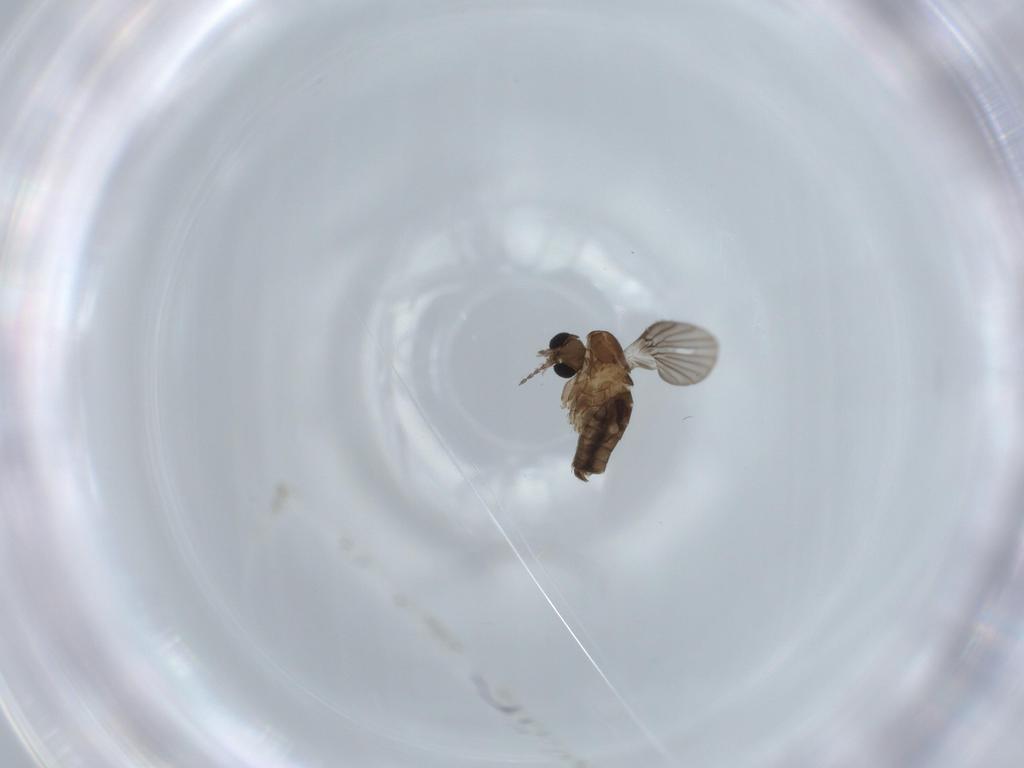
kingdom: Animalia
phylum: Arthropoda
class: Insecta
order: Diptera
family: Psychodidae
